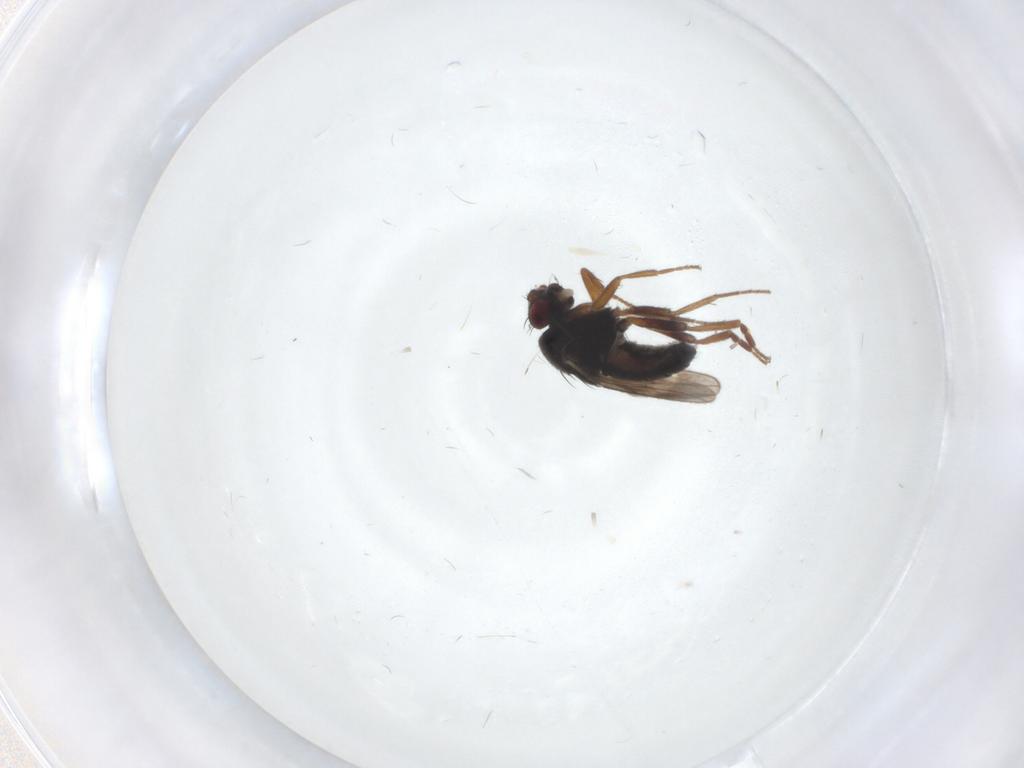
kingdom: Animalia
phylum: Arthropoda
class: Insecta
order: Diptera
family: Sphaeroceridae
